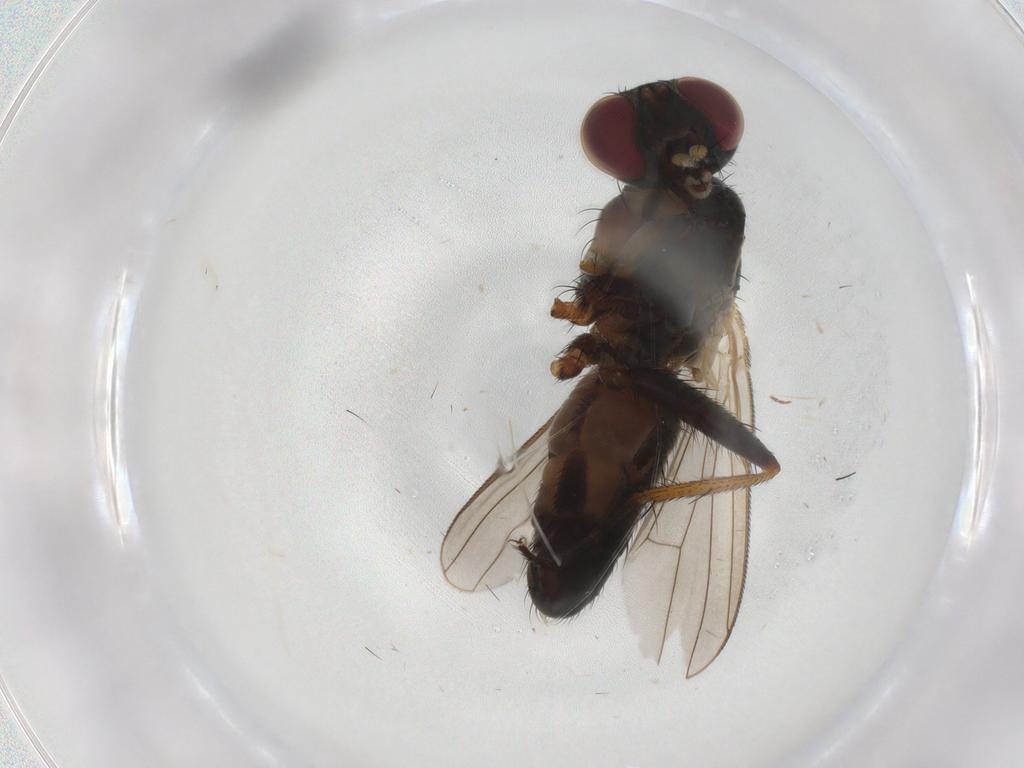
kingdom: Animalia
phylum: Arthropoda
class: Insecta
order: Diptera
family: Muscidae
